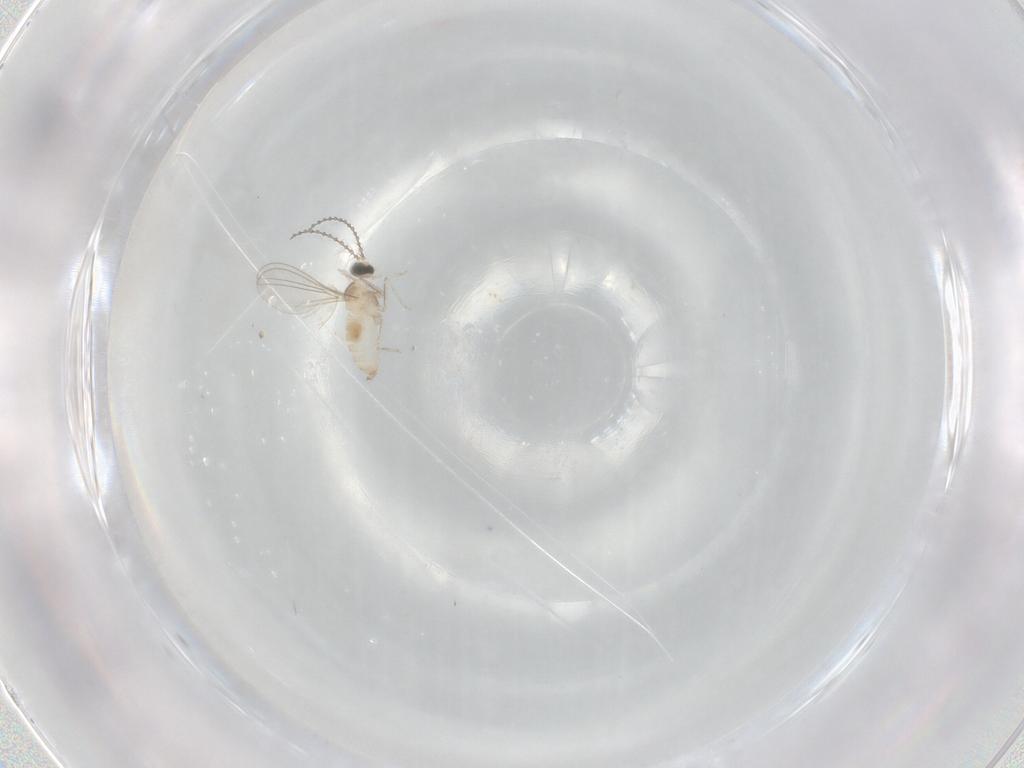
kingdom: Animalia
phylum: Arthropoda
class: Insecta
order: Diptera
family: Cecidomyiidae
